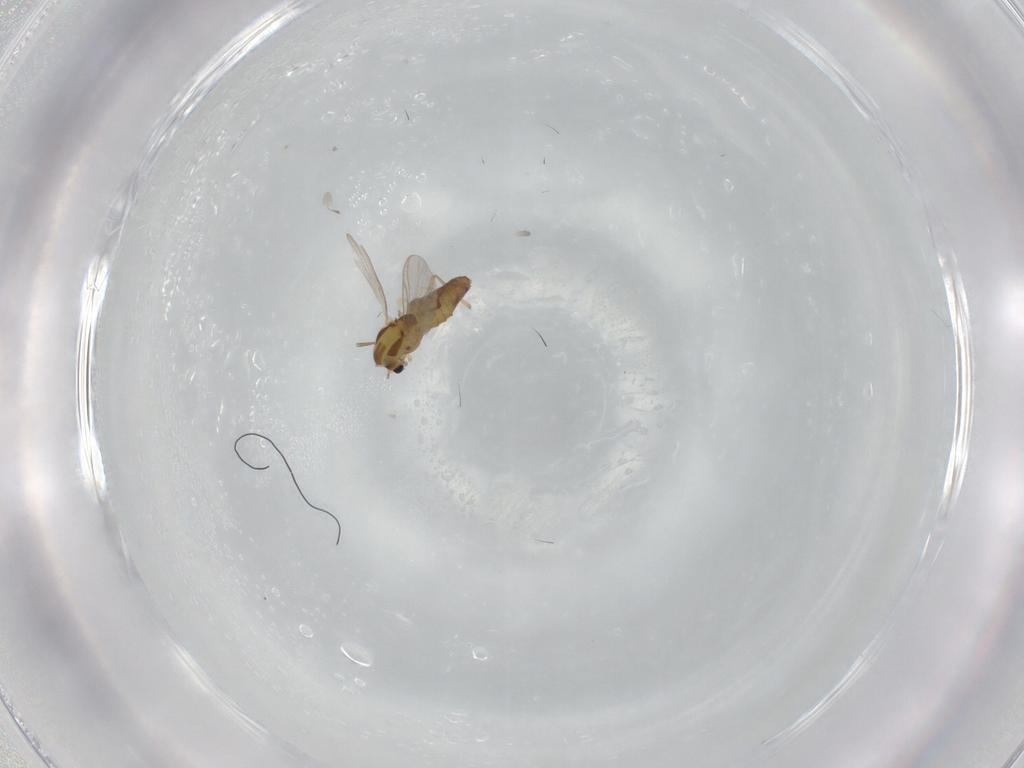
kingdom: Animalia
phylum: Arthropoda
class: Insecta
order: Diptera
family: Chironomidae
